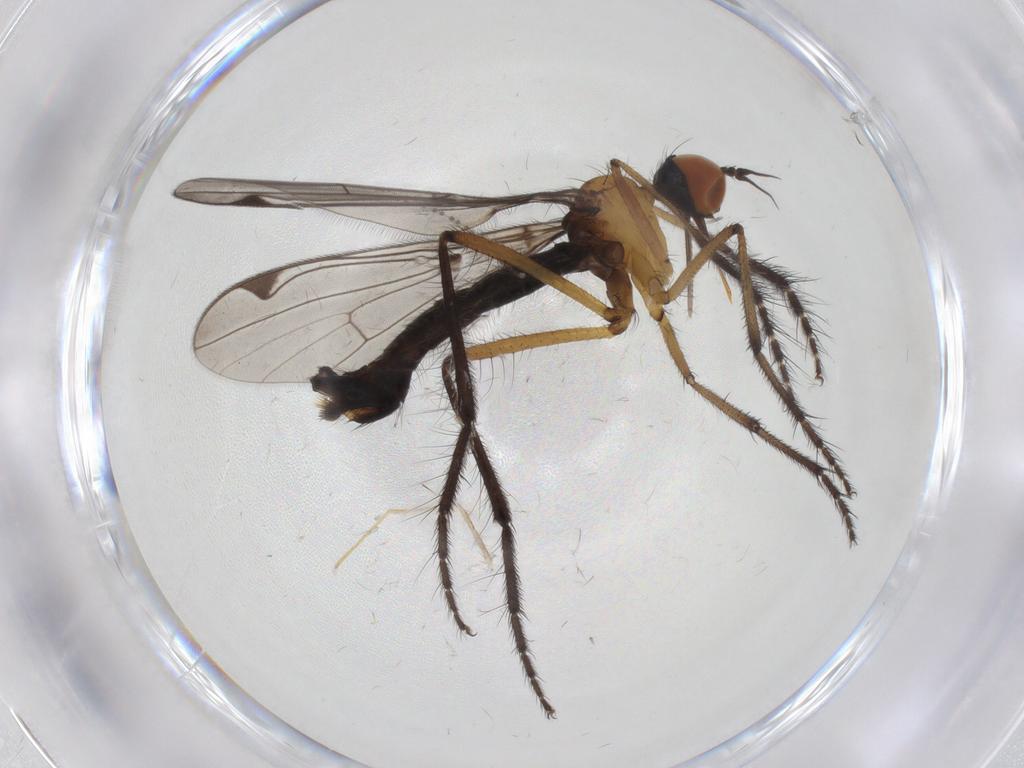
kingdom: Animalia
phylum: Arthropoda
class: Insecta
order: Diptera
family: Empididae
